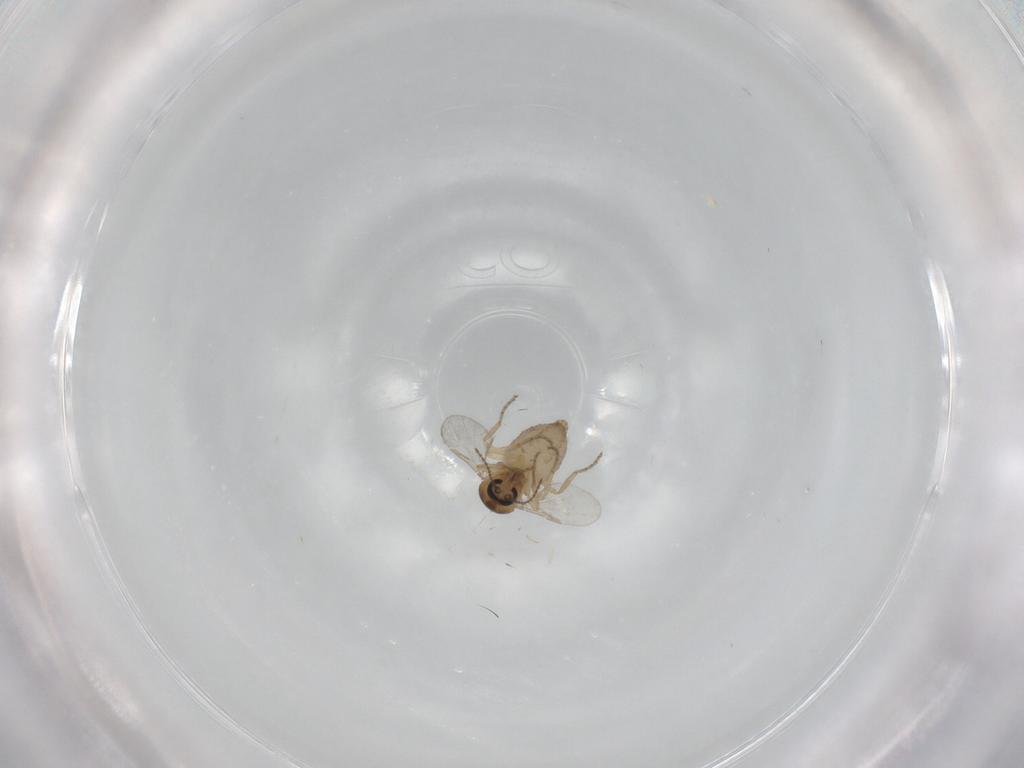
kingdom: Animalia
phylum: Arthropoda
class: Insecta
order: Diptera
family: Ceratopogonidae
